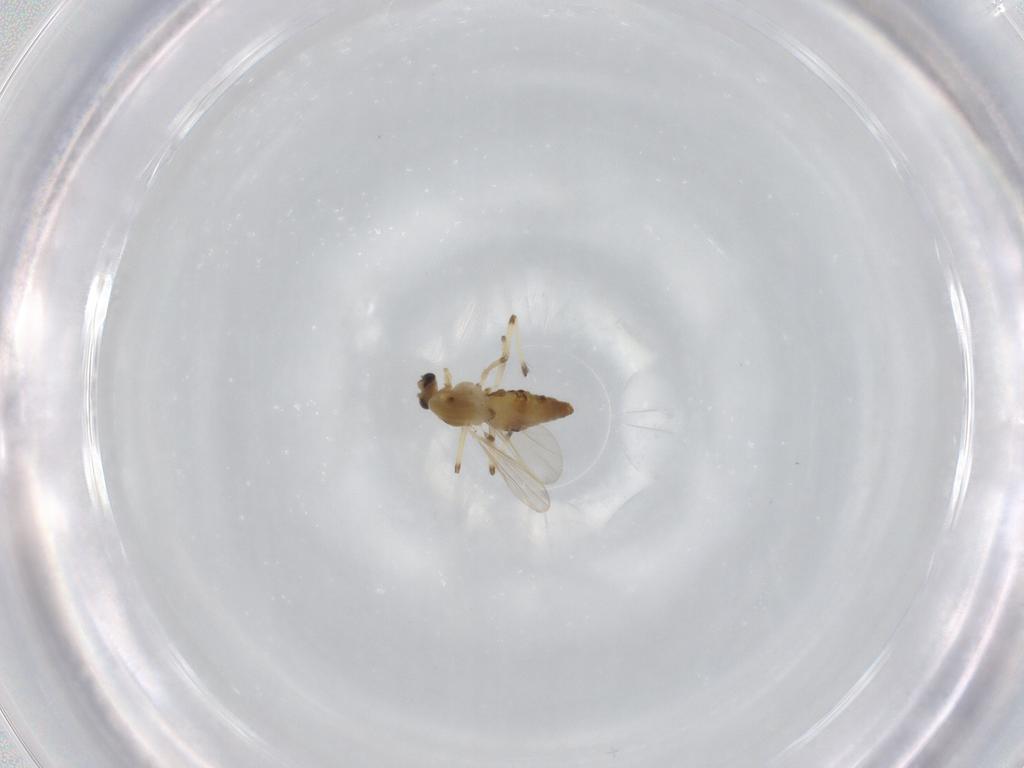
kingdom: Animalia
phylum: Arthropoda
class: Insecta
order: Diptera
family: Chironomidae
